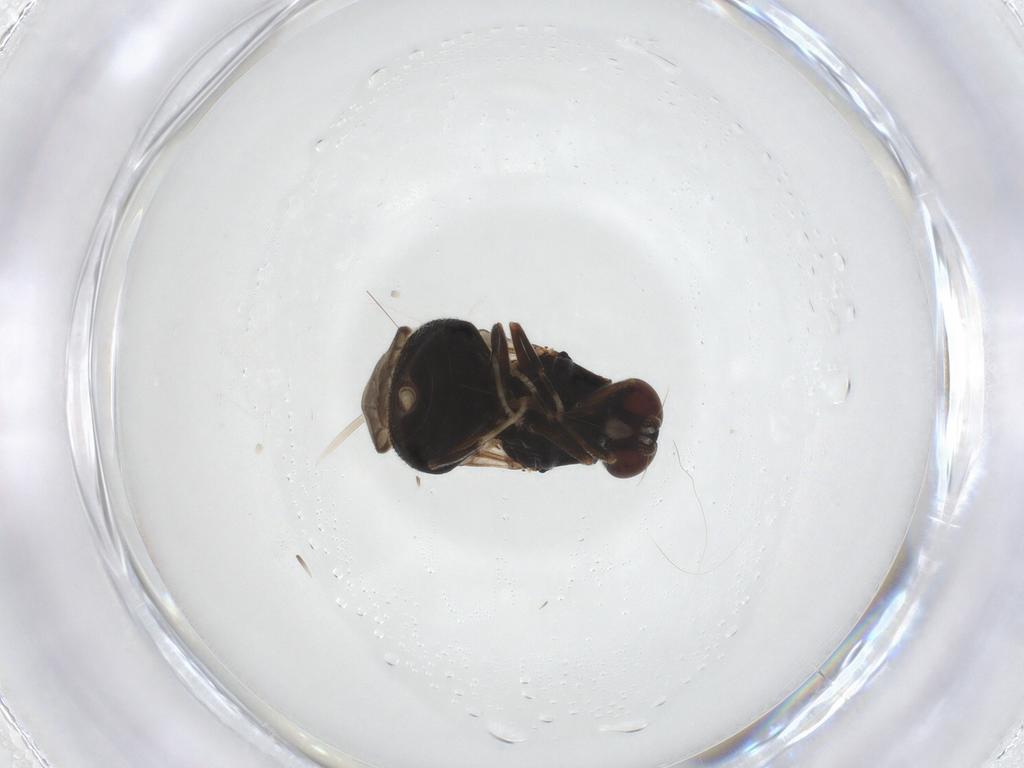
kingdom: Animalia
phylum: Arthropoda
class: Insecta
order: Diptera
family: Stratiomyidae
